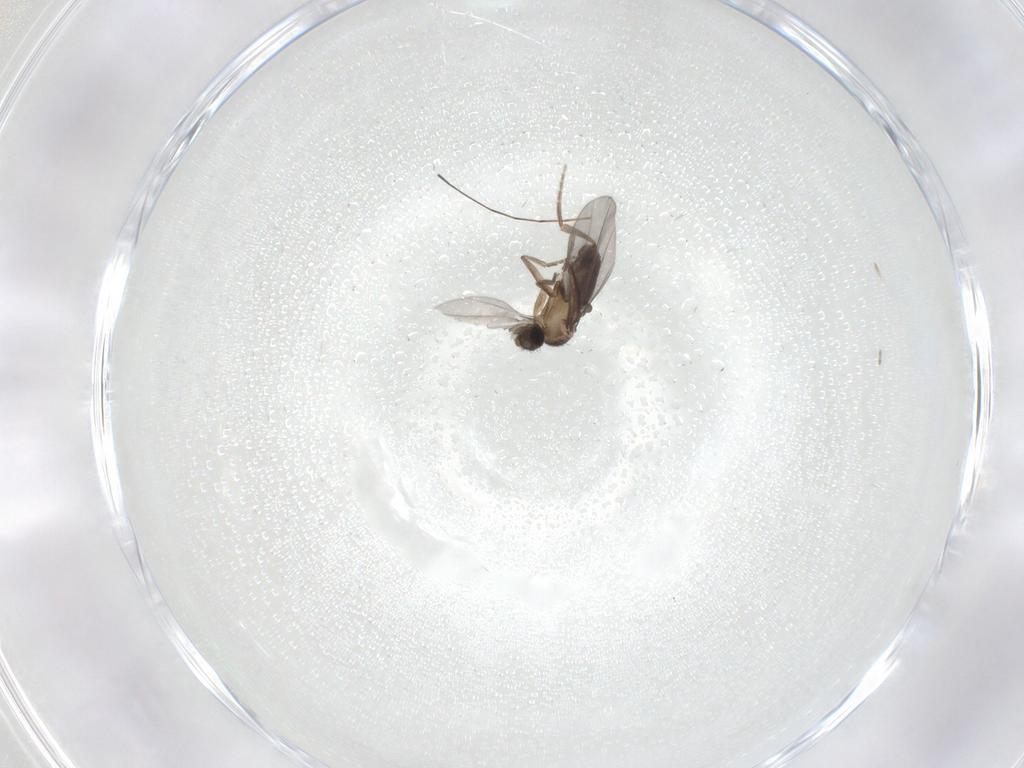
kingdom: Animalia
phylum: Arthropoda
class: Insecta
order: Diptera
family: Phoridae
